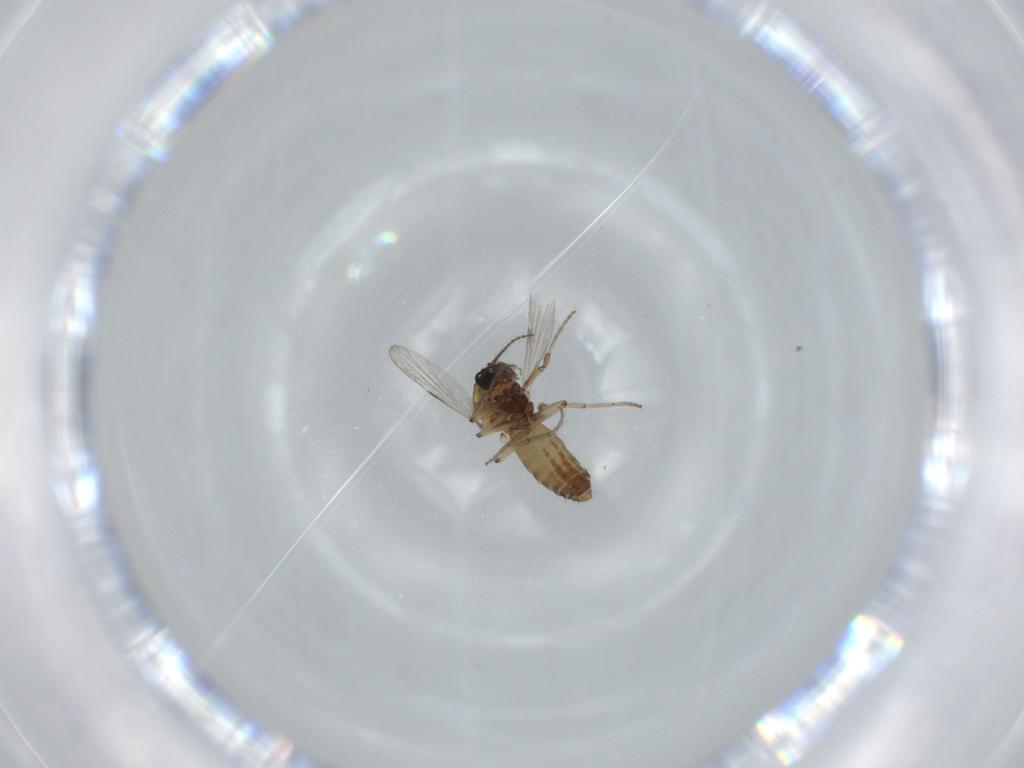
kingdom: Animalia
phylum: Arthropoda
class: Insecta
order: Diptera
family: Ceratopogonidae
